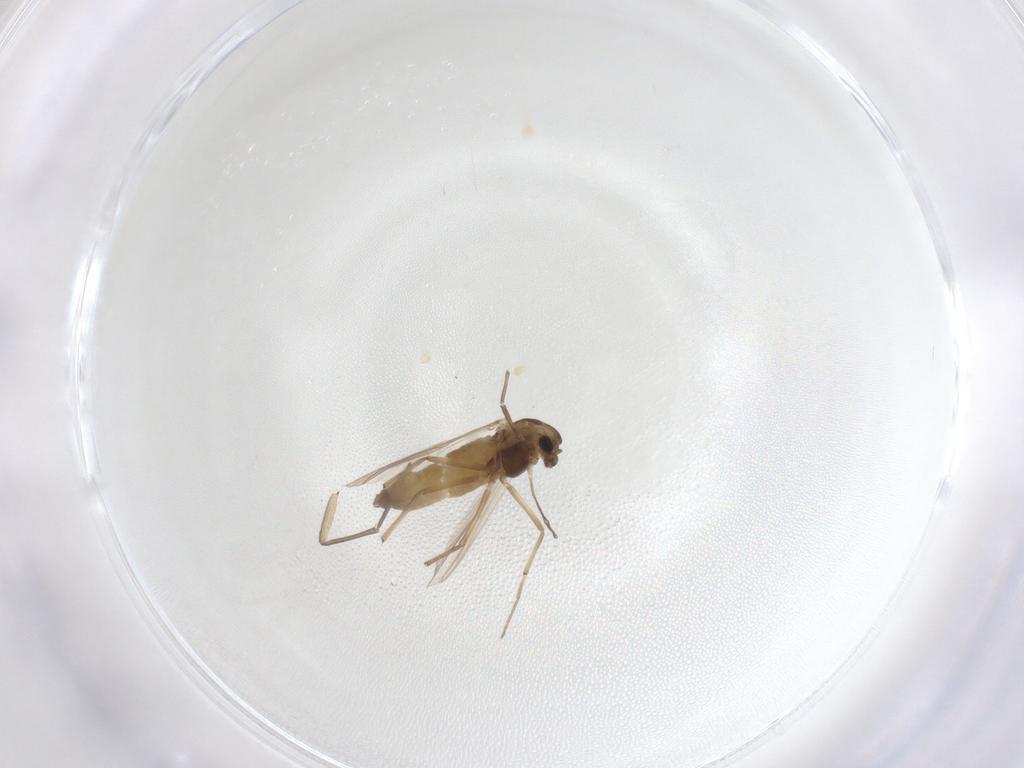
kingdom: Animalia
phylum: Arthropoda
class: Insecta
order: Diptera
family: Chironomidae
